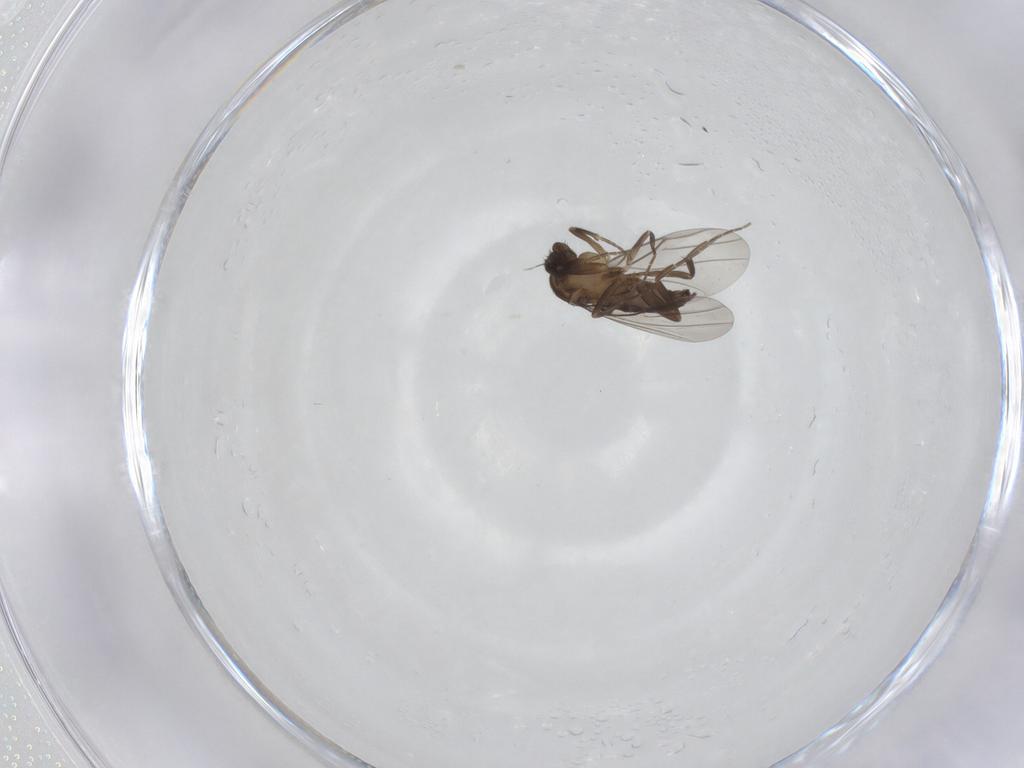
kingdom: Animalia
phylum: Arthropoda
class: Insecta
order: Diptera
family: Phoridae
